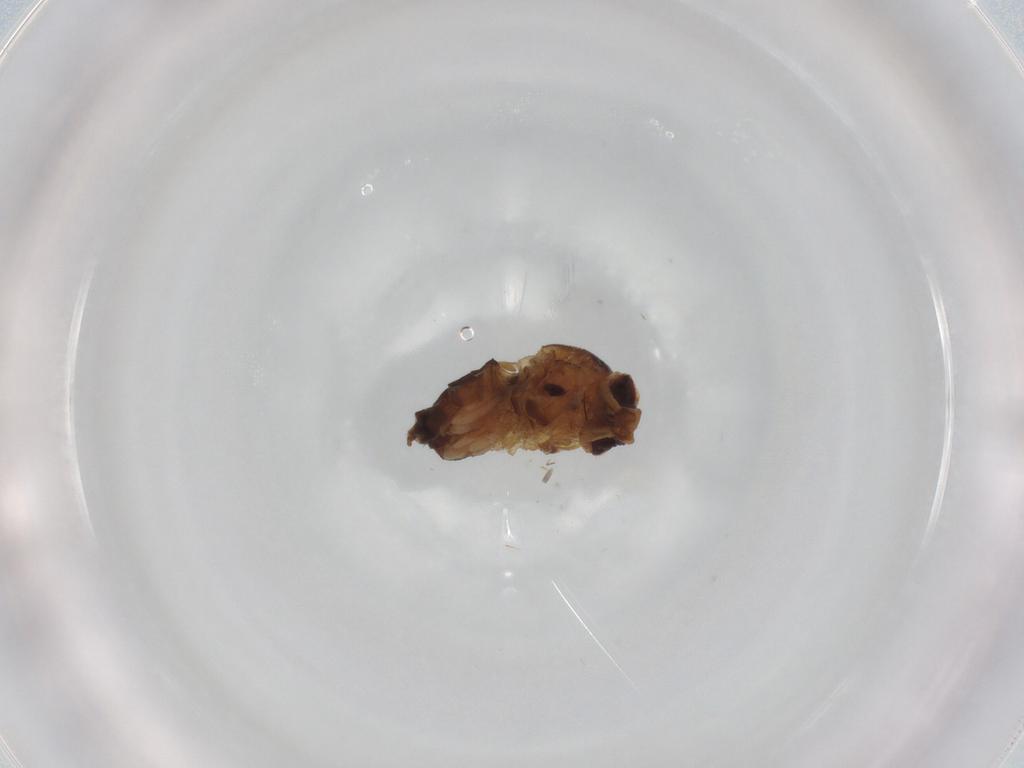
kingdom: Animalia
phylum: Arthropoda
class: Insecta
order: Diptera
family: Chloropidae
